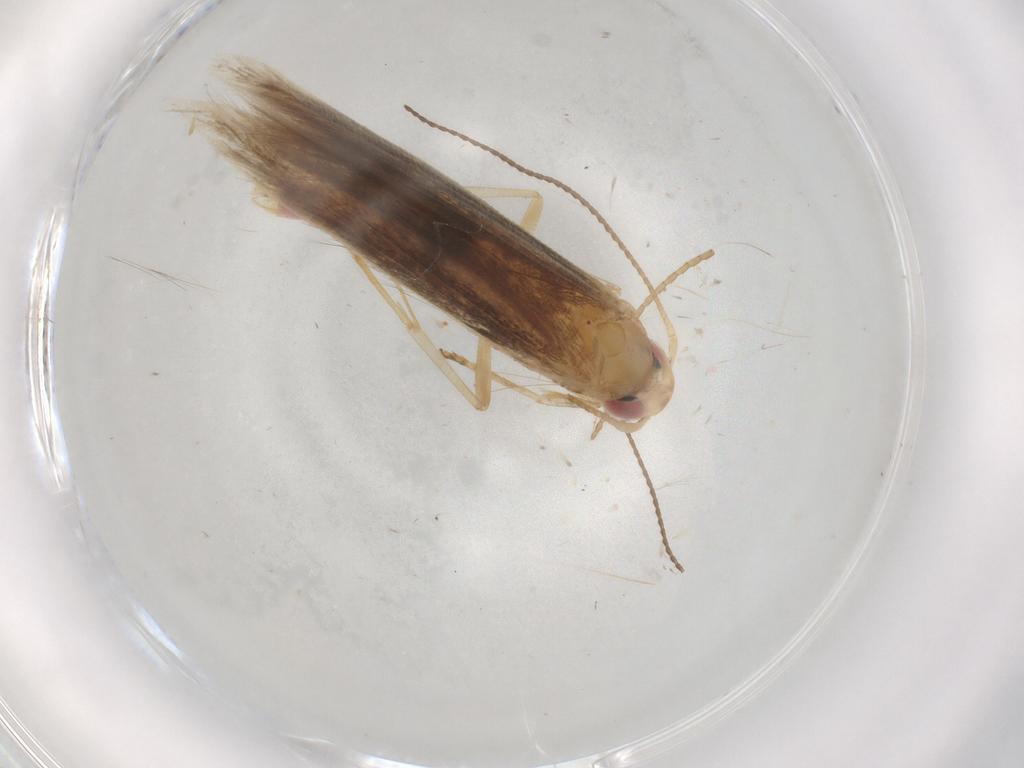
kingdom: Animalia
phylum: Arthropoda
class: Insecta
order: Lepidoptera
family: Cosmopterigidae
